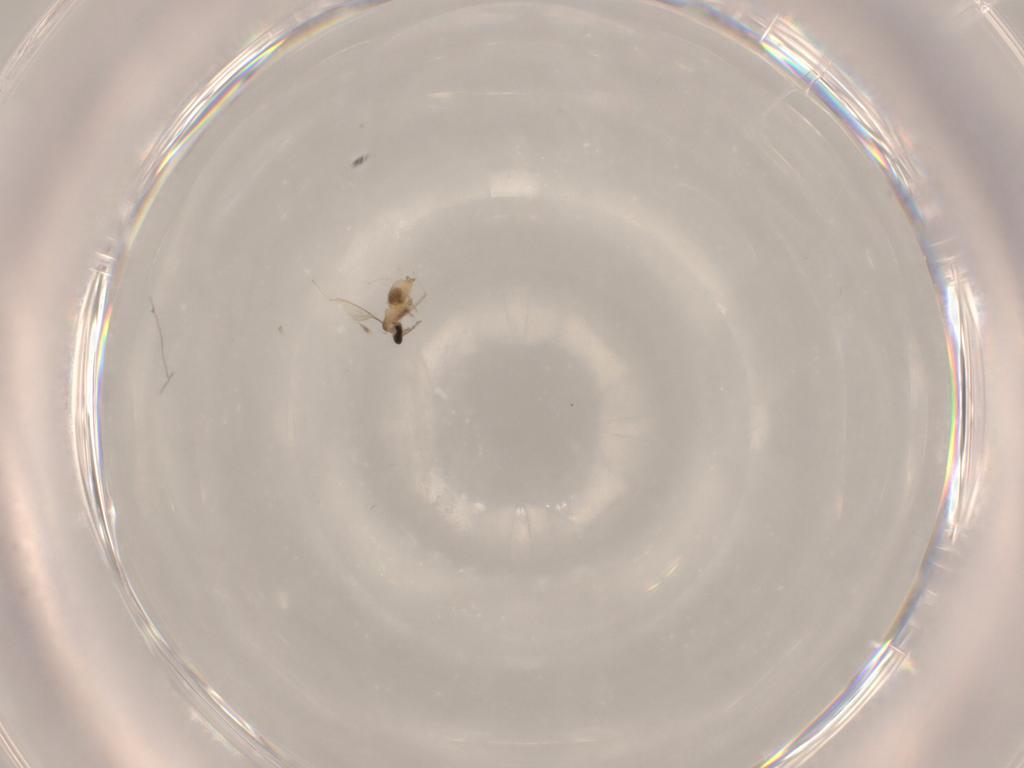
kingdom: Animalia
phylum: Arthropoda
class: Insecta
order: Diptera
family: Cecidomyiidae
